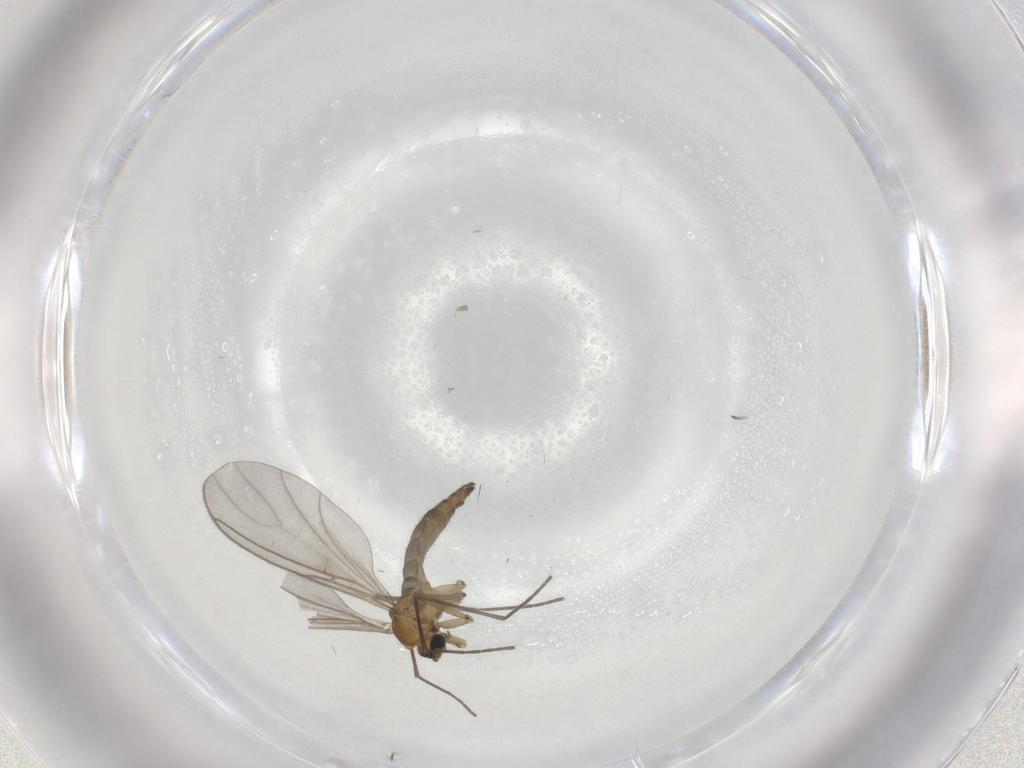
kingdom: Animalia
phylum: Arthropoda
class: Insecta
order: Diptera
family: Sciaridae
